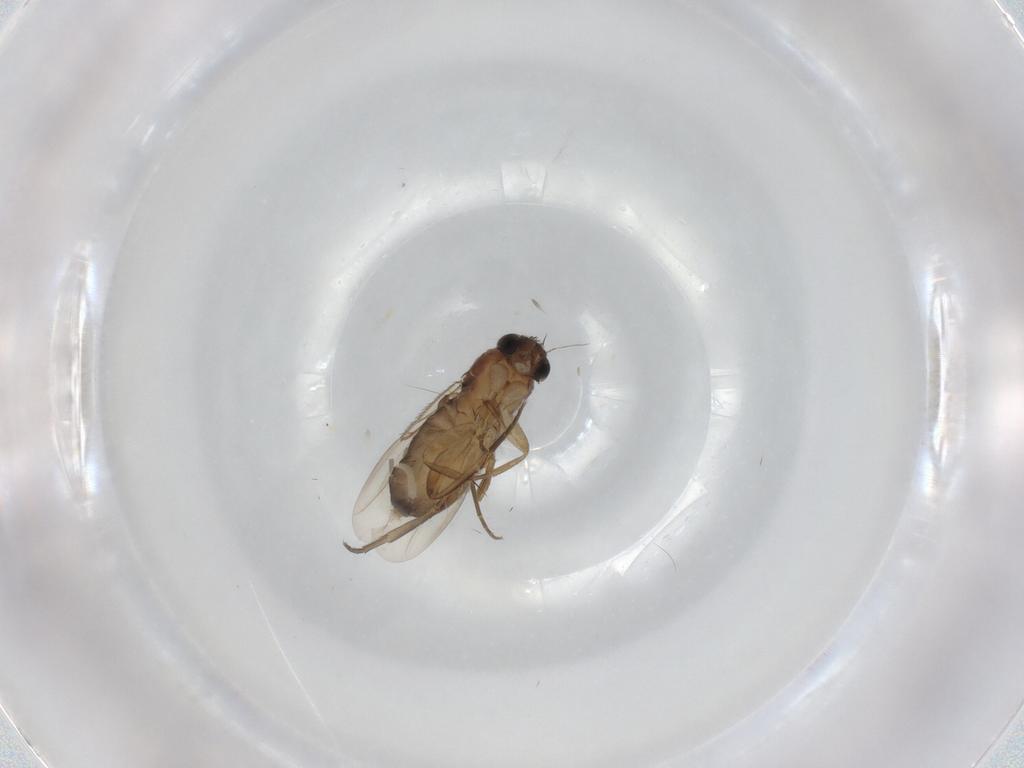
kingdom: Animalia
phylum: Arthropoda
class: Insecta
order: Diptera
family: Phoridae
